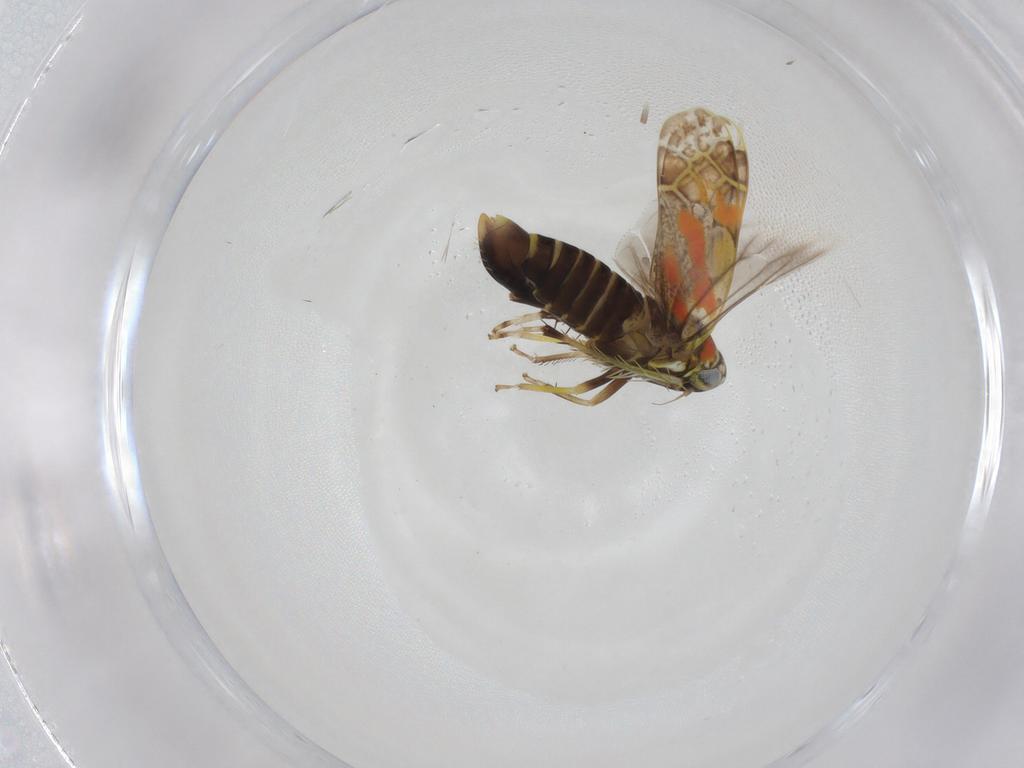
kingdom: Animalia
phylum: Arthropoda
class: Insecta
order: Hemiptera
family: Cicadellidae
